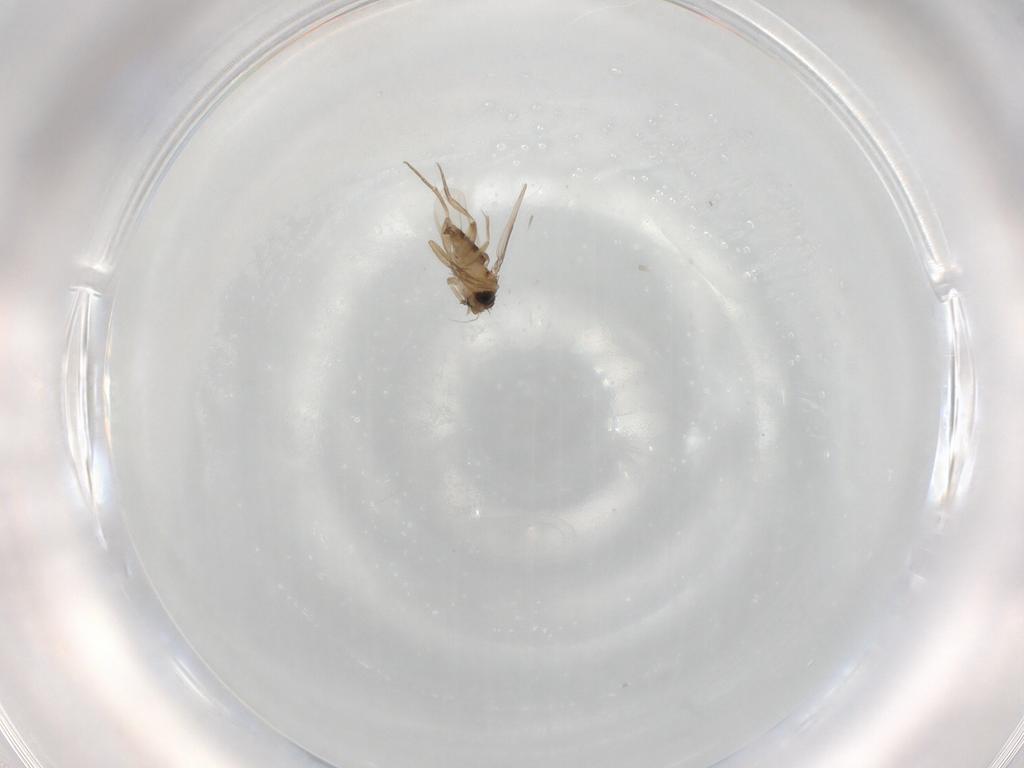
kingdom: Animalia
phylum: Arthropoda
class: Insecta
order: Diptera
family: Phoridae
